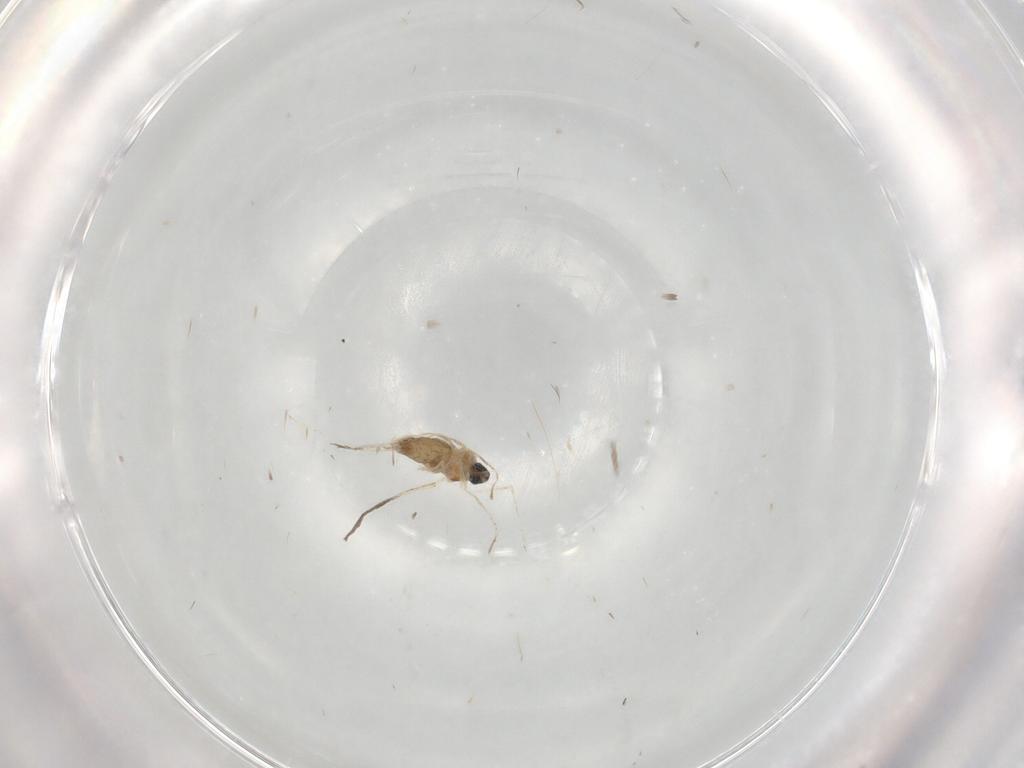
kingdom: Animalia
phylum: Arthropoda
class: Insecta
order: Diptera
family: Cecidomyiidae
